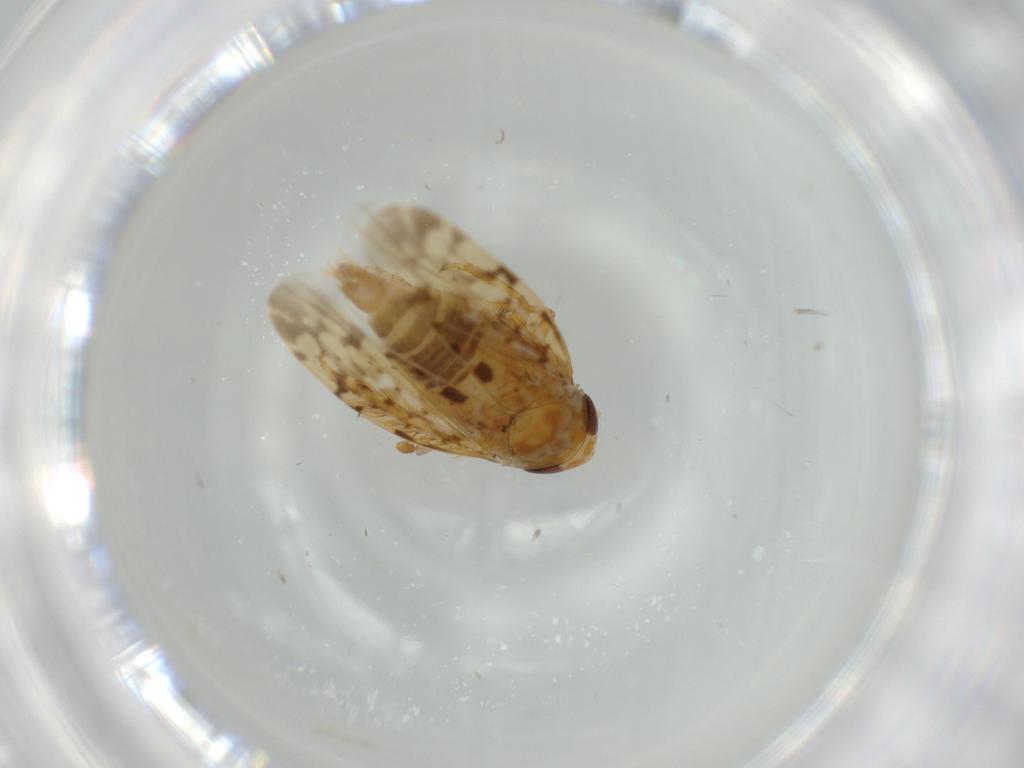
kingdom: Animalia
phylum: Arthropoda
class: Insecta
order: Hemiptera
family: Cicadellidae
